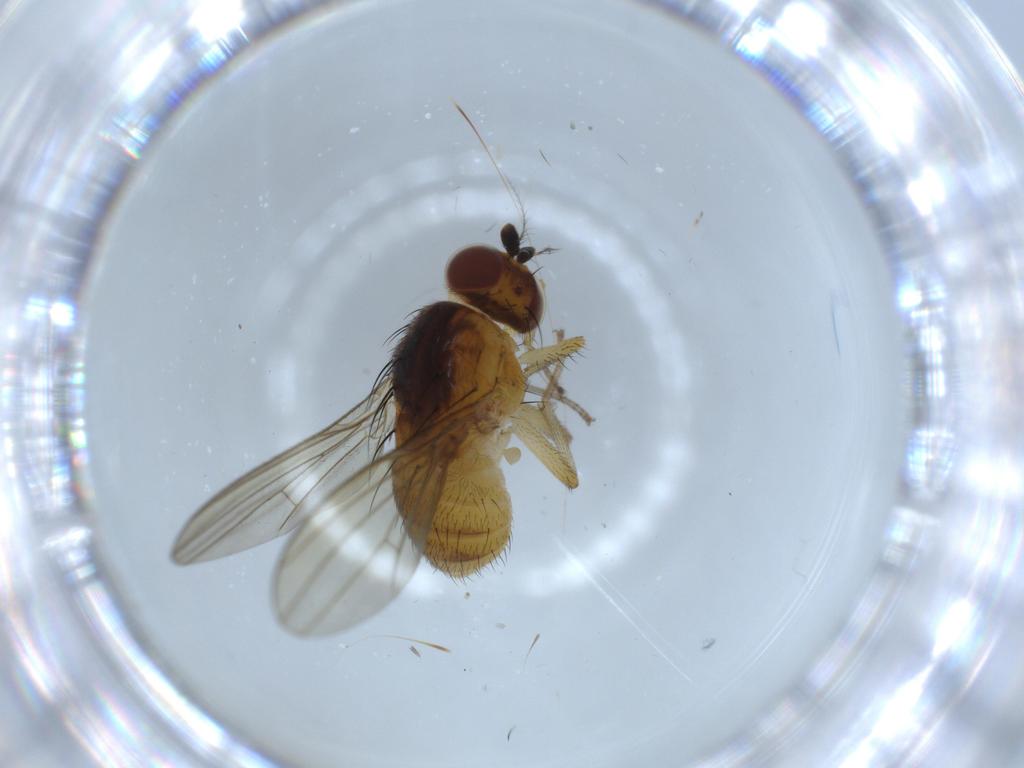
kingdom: Animalia
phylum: Arthropoda
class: Insecta
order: Diptera
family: Lauxaniidae
